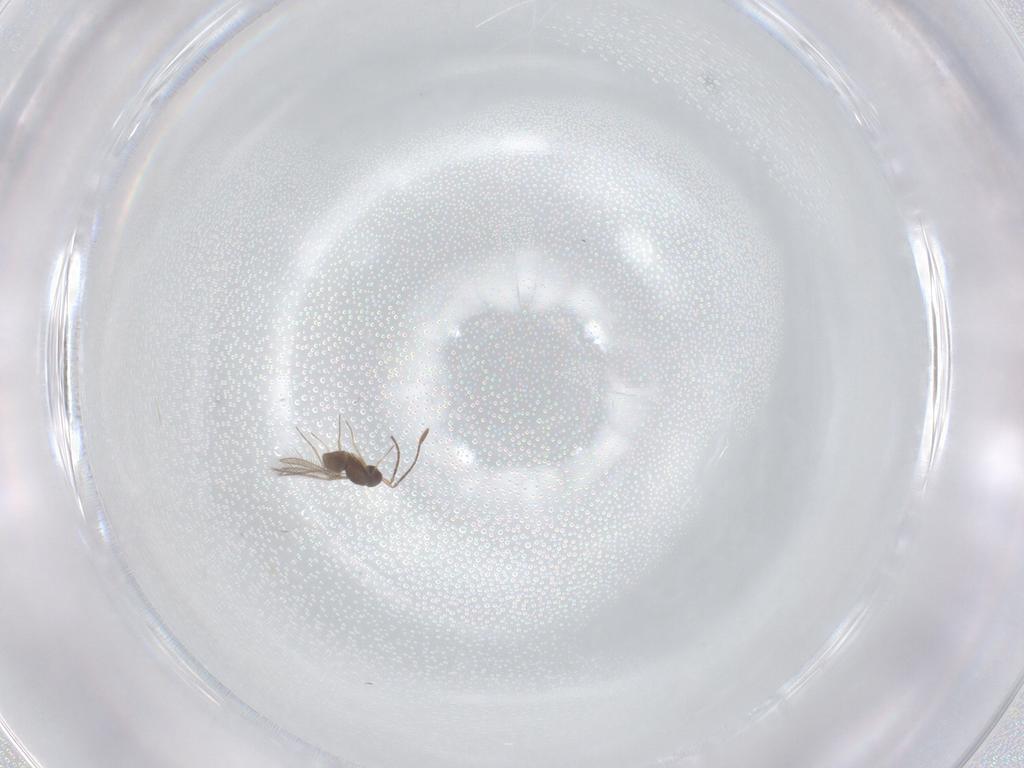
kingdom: Animalia
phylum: Arthropoda
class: Insecta
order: Hymenoptera
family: Mymaridae
